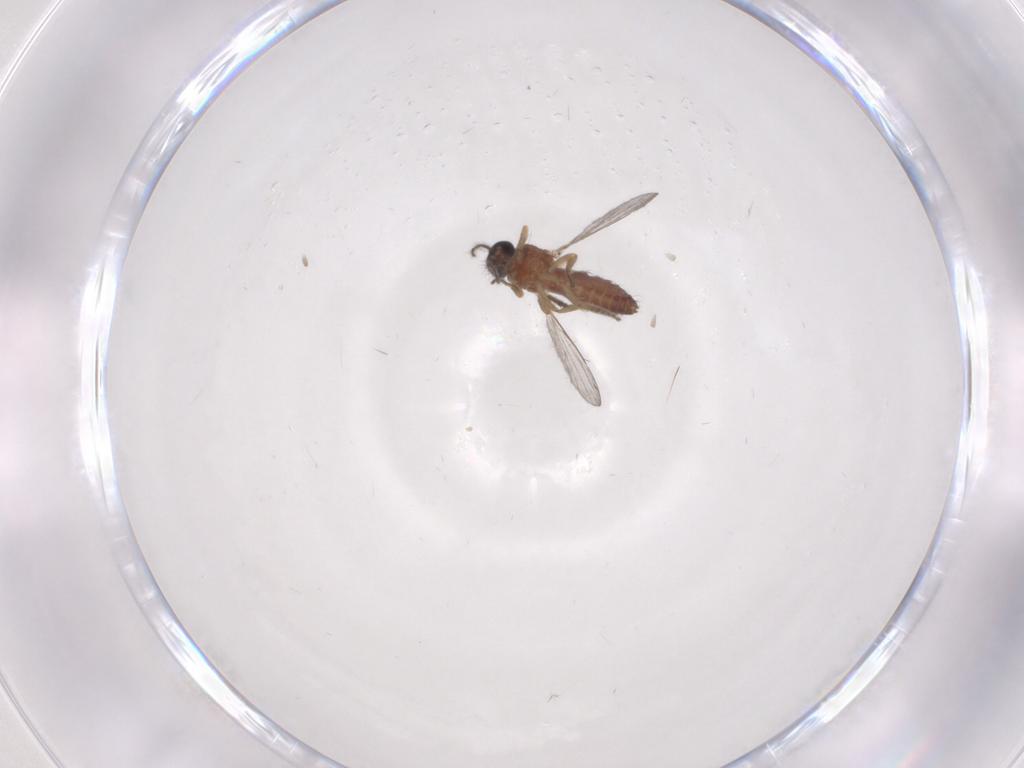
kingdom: Animalia
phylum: Arthropoda
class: Insecta
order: Diptera
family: Ceratopogonidae
